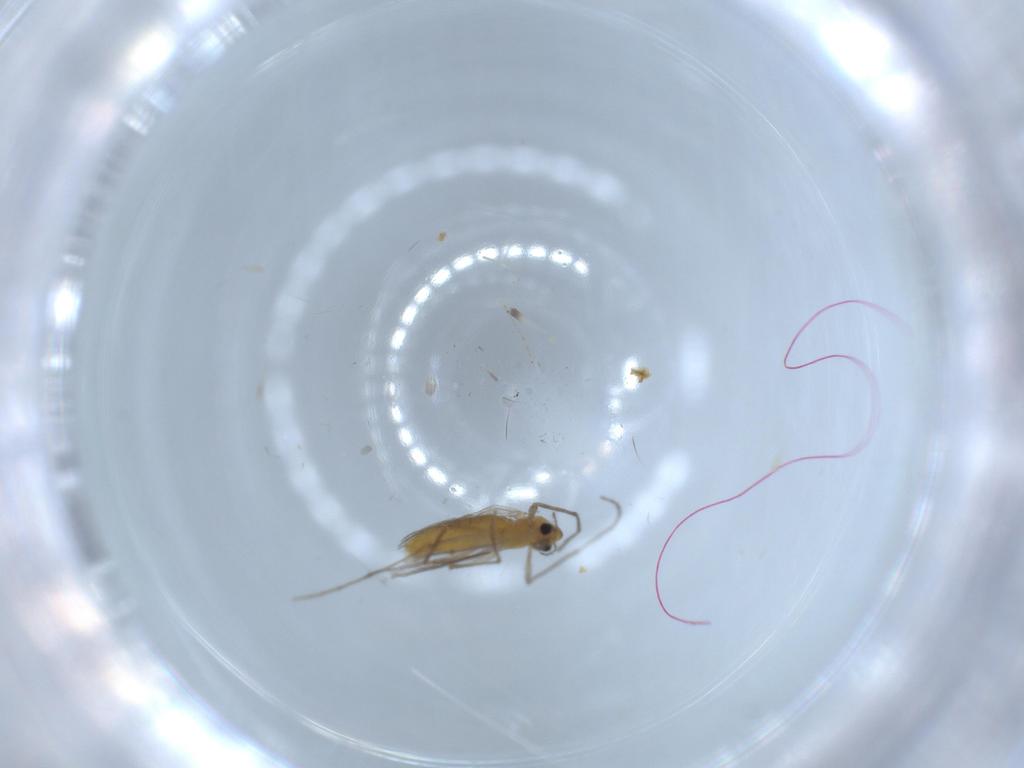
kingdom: Animalia
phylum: Arthropoda
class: Insecta
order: Diptera
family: Chironomidae
